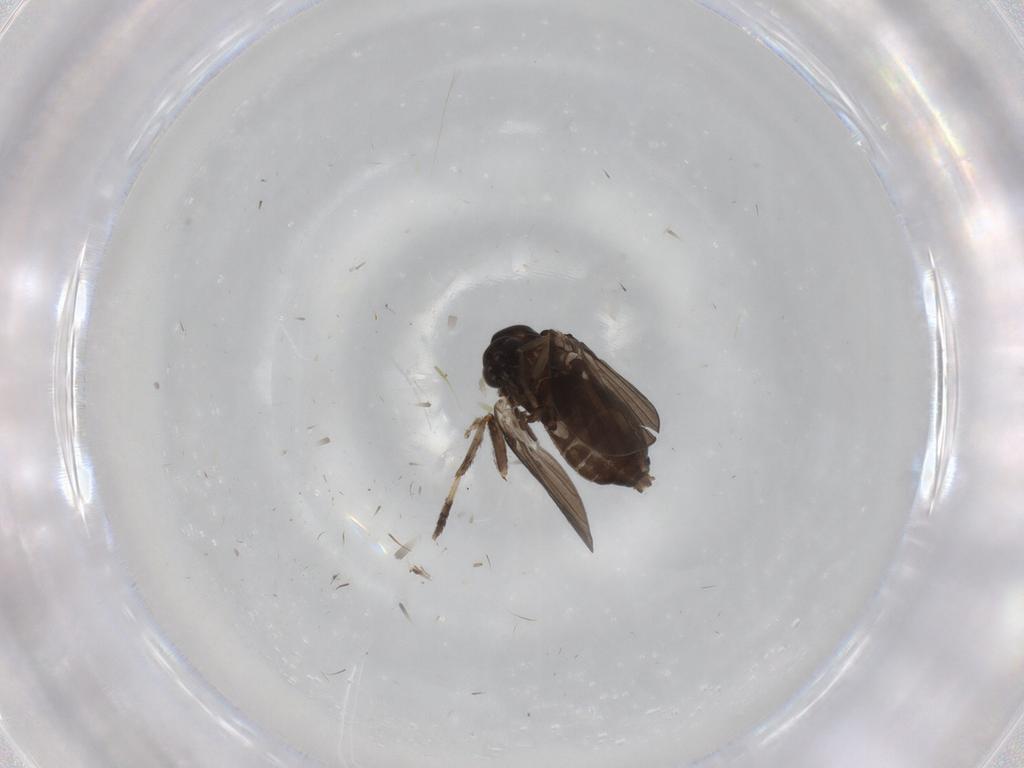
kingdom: Animalia
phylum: Arthropoda
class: Insecta
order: Diptera
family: Psychodidae
